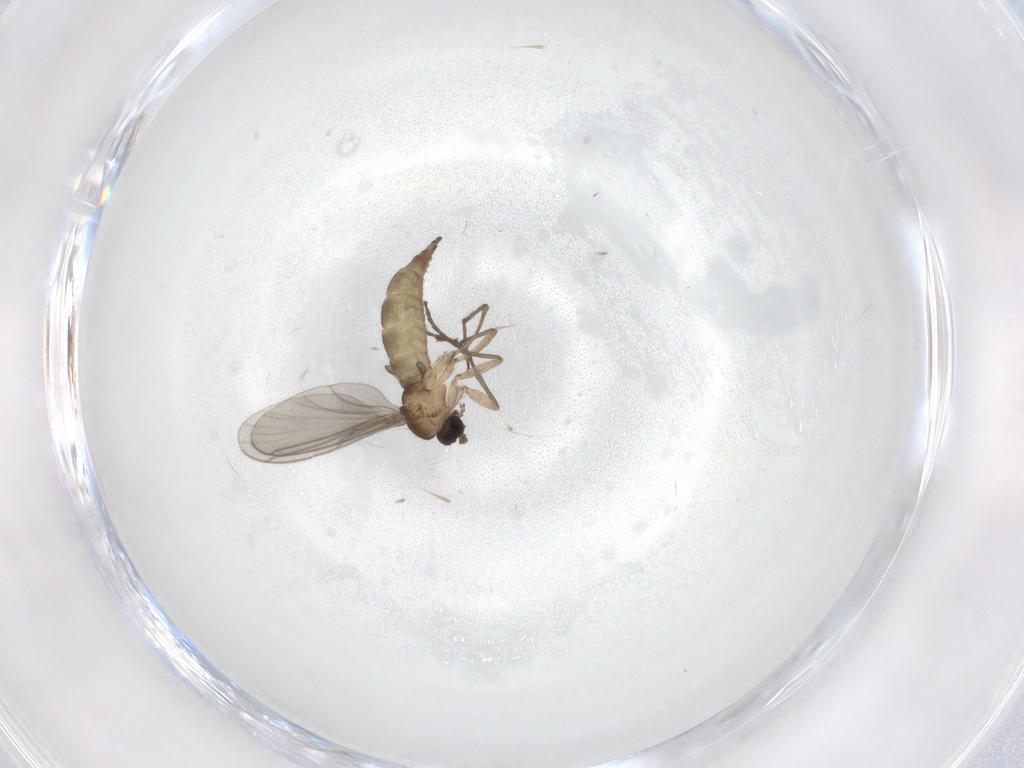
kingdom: Animalia
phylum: Arthropoda
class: Insecta
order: Diptera
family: Sciaridae
